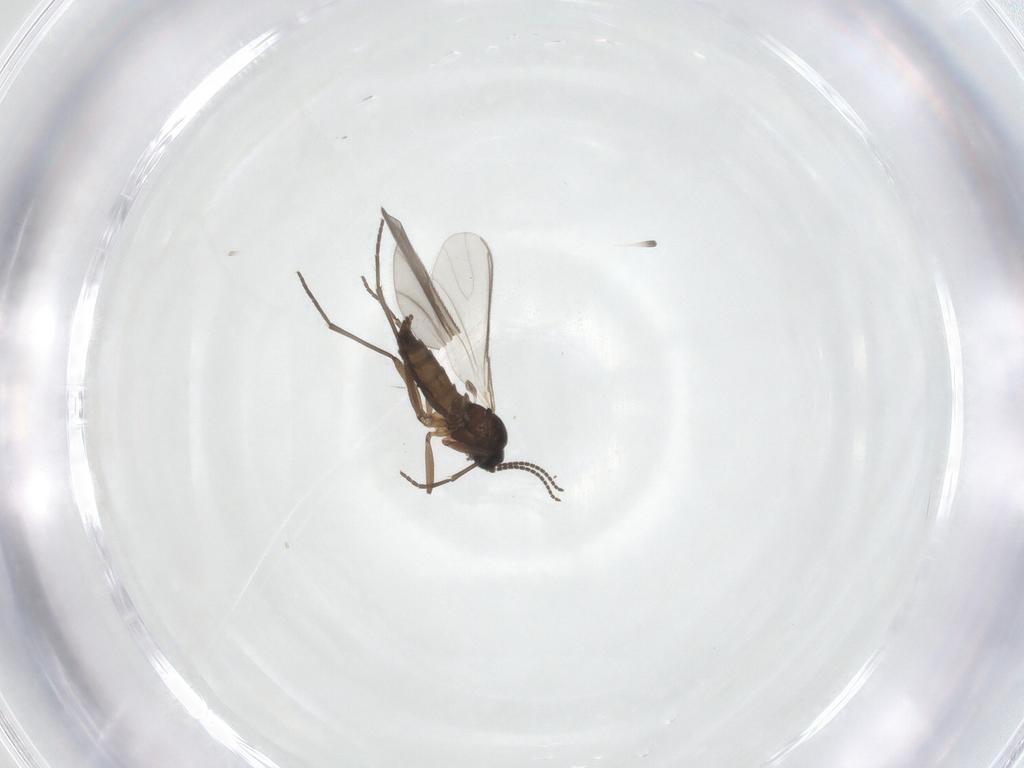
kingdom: Animalia
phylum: Arthropoda
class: Insecta
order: Diptera
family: Sciaridae
